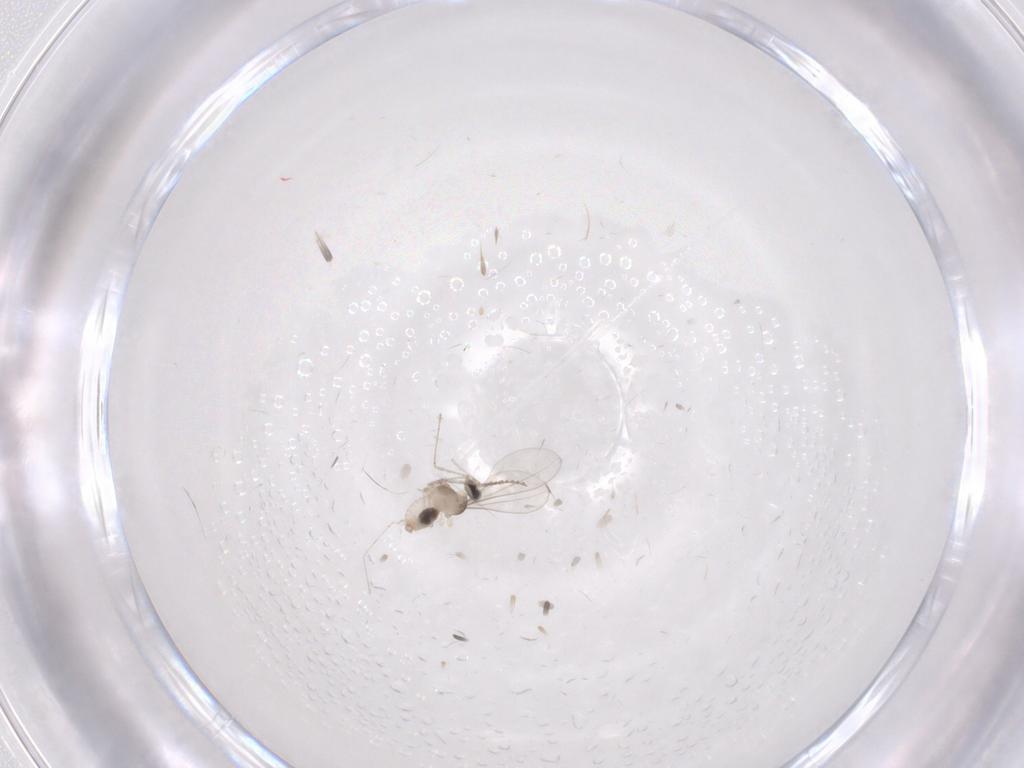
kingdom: Animalia
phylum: Arthropoda
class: Insecta
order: Diptera
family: Cecidomyiidae
